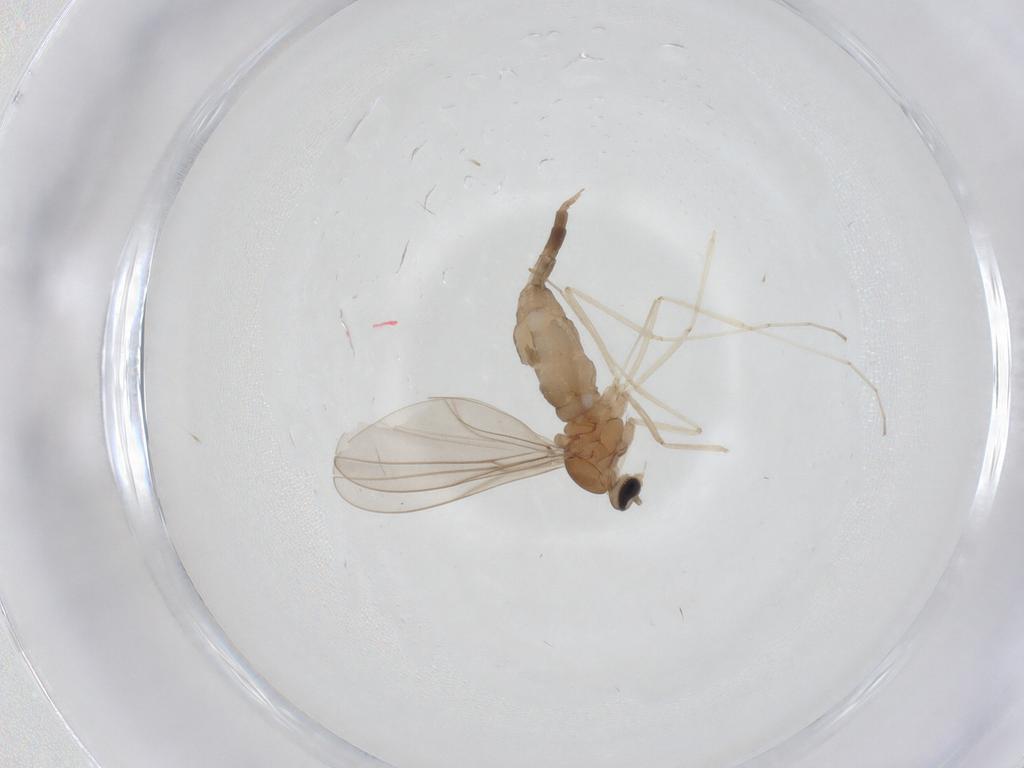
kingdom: Animalia
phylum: Arthropoda
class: Insecta
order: Diptera
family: Cecidomyiidae
